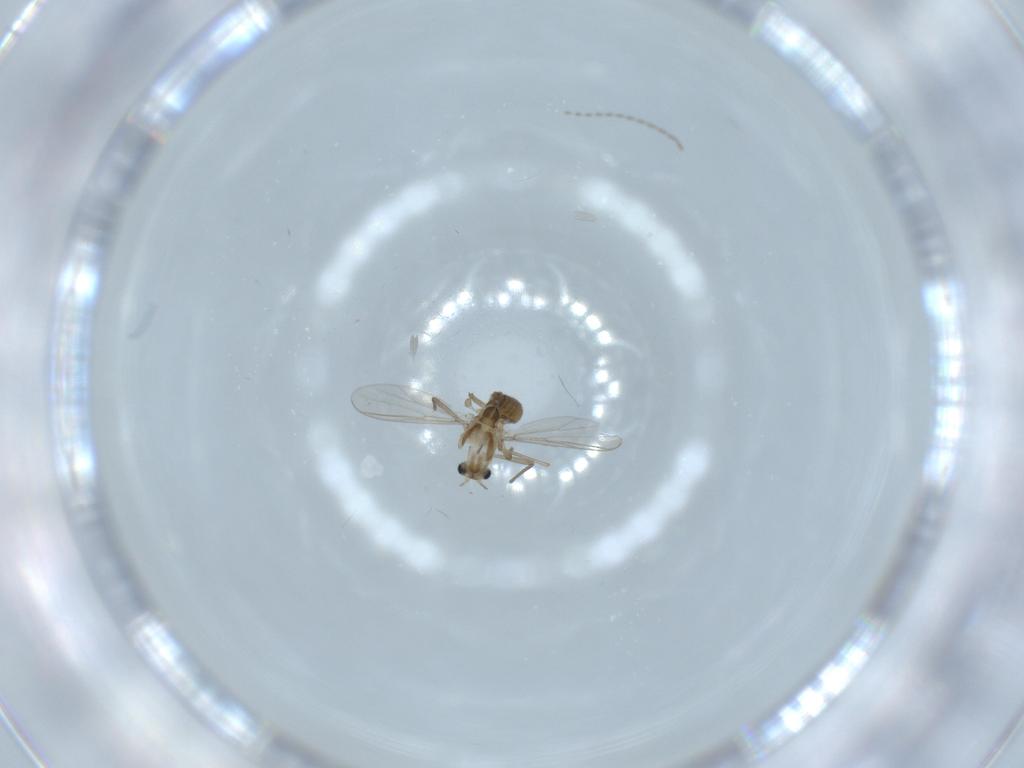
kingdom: Animalia
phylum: Arthropoda
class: Insecta
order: Diptera
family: Chironomidae
